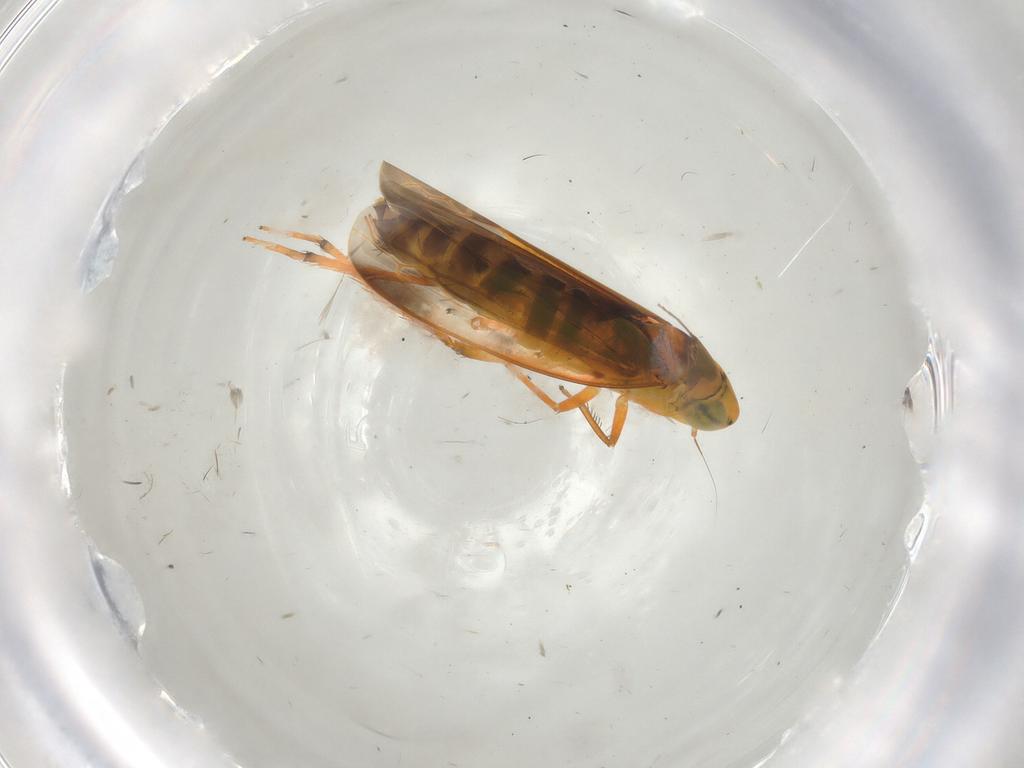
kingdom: Animalia
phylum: Arthropoda
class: Insecta
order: Hemiptera
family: Cicadellidae
